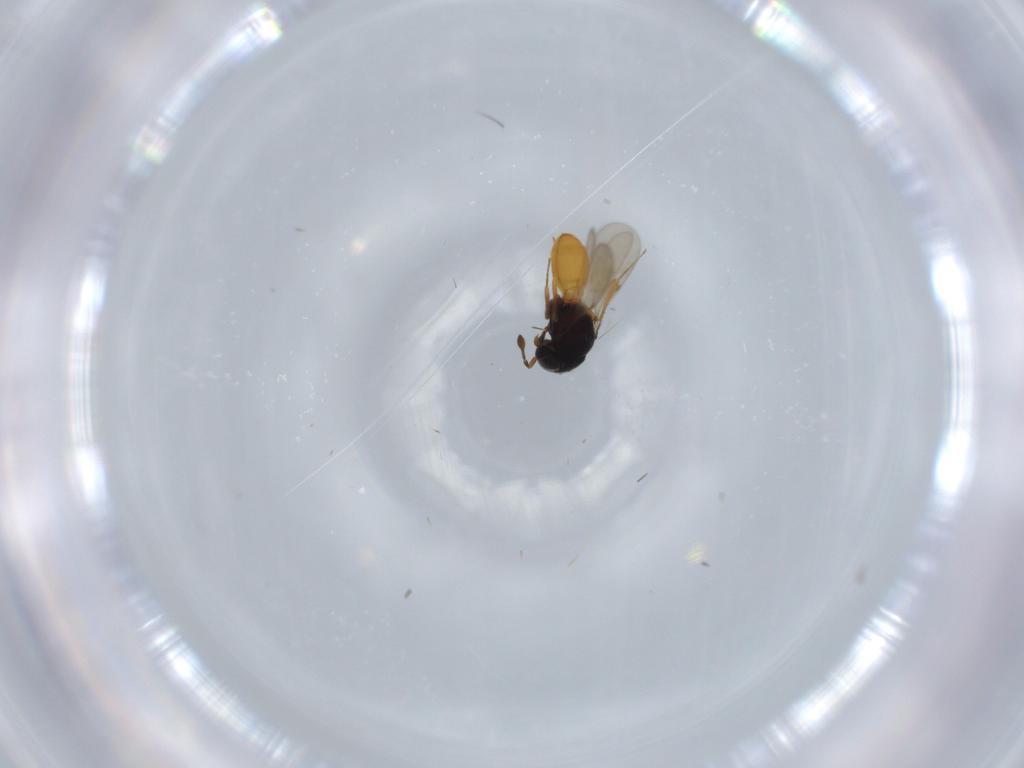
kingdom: Animalia
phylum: Arthropoda
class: Insecta
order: Hymenoptera
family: Scelionidae
